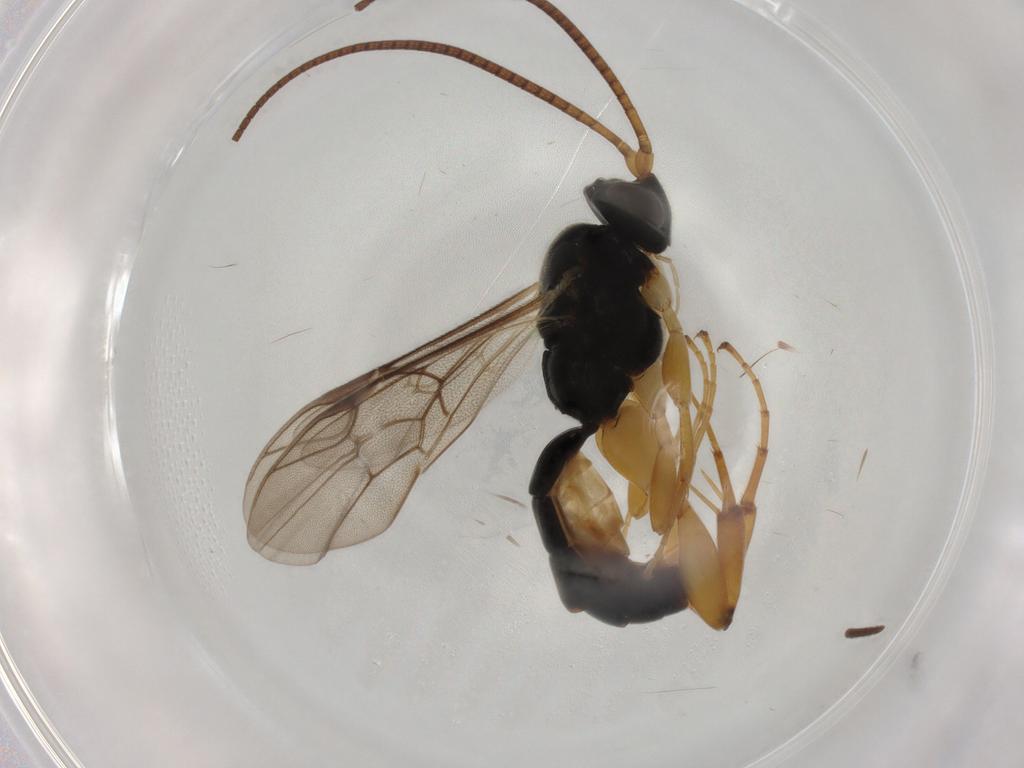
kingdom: Animalia
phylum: Arthropoda
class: Insecta
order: Hymenoptera
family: Ichneumonidae
